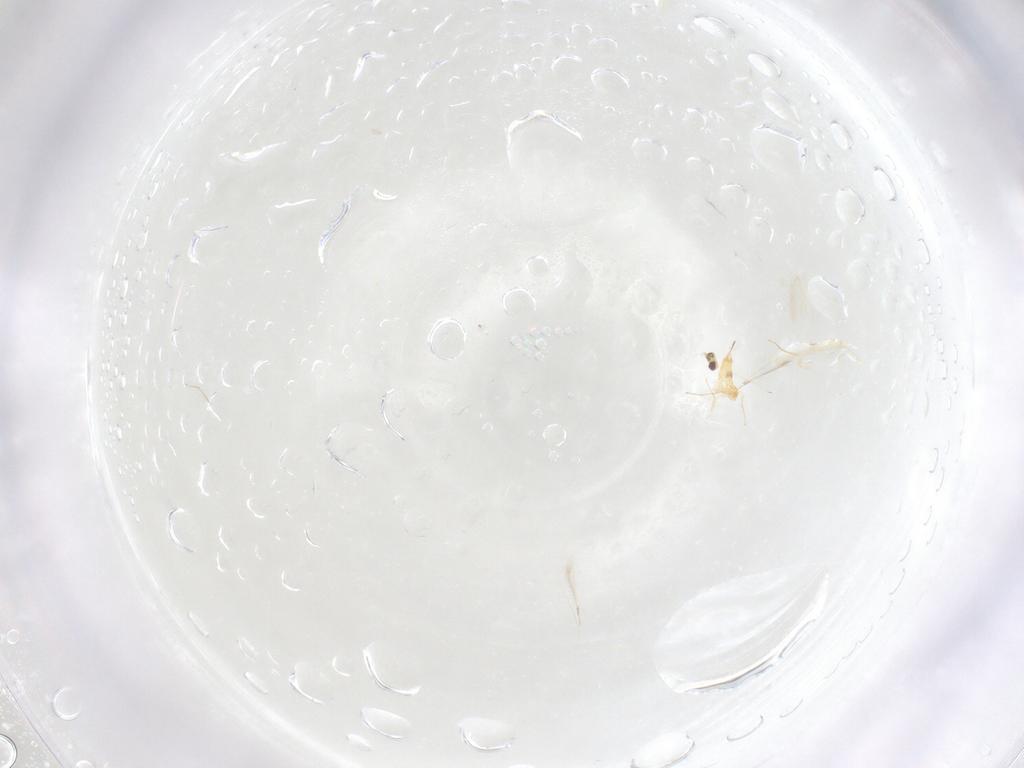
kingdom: Animalia
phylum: Arthropoda
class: Insecta
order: Hymenoptera
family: Mymaridae
